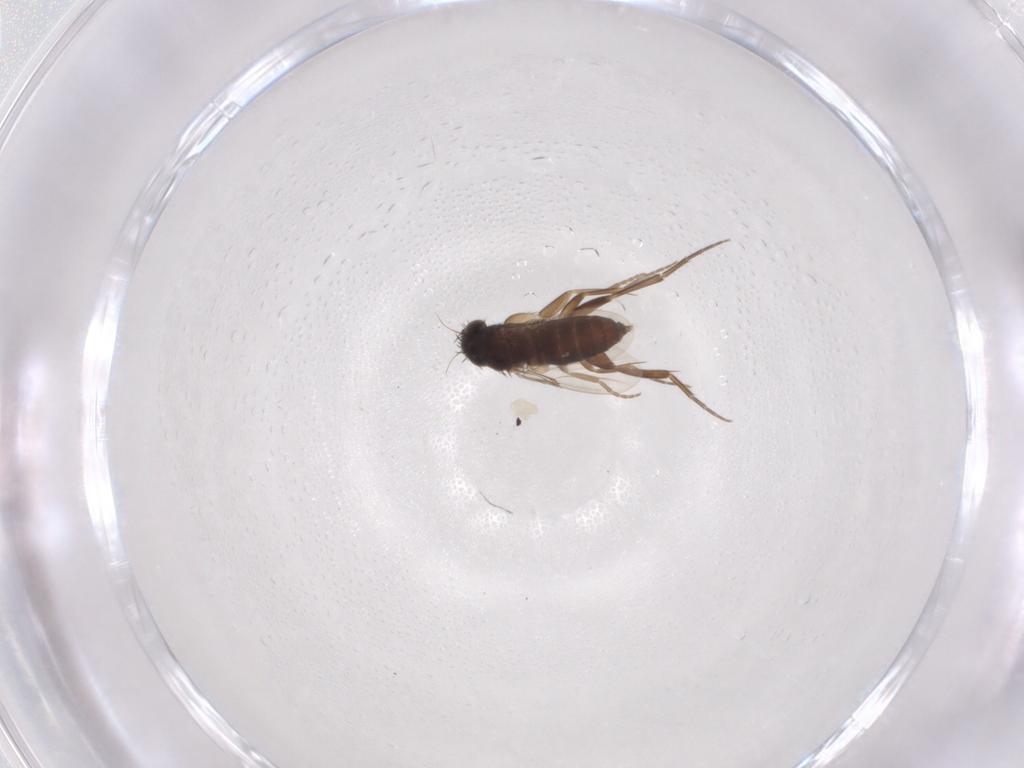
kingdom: Animalia
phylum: Arthropoda
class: Insecta
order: Diptera
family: Phoridae
